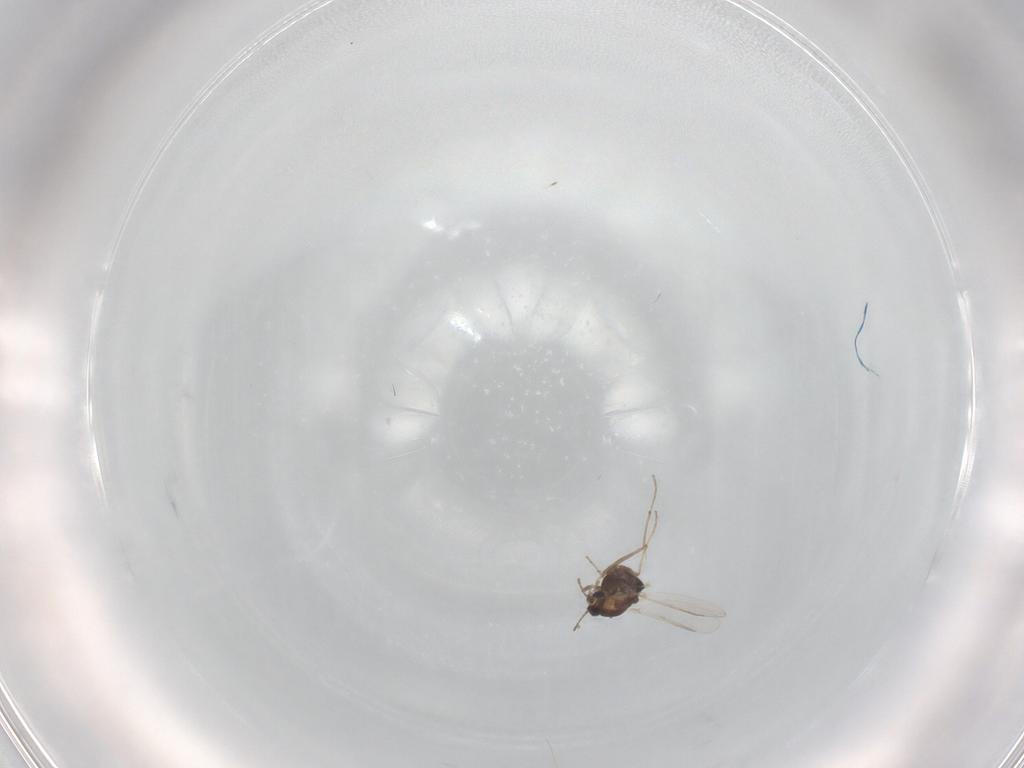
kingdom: Animalia
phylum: Arthropoda
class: Insecta
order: Diptera
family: Chironomidae
